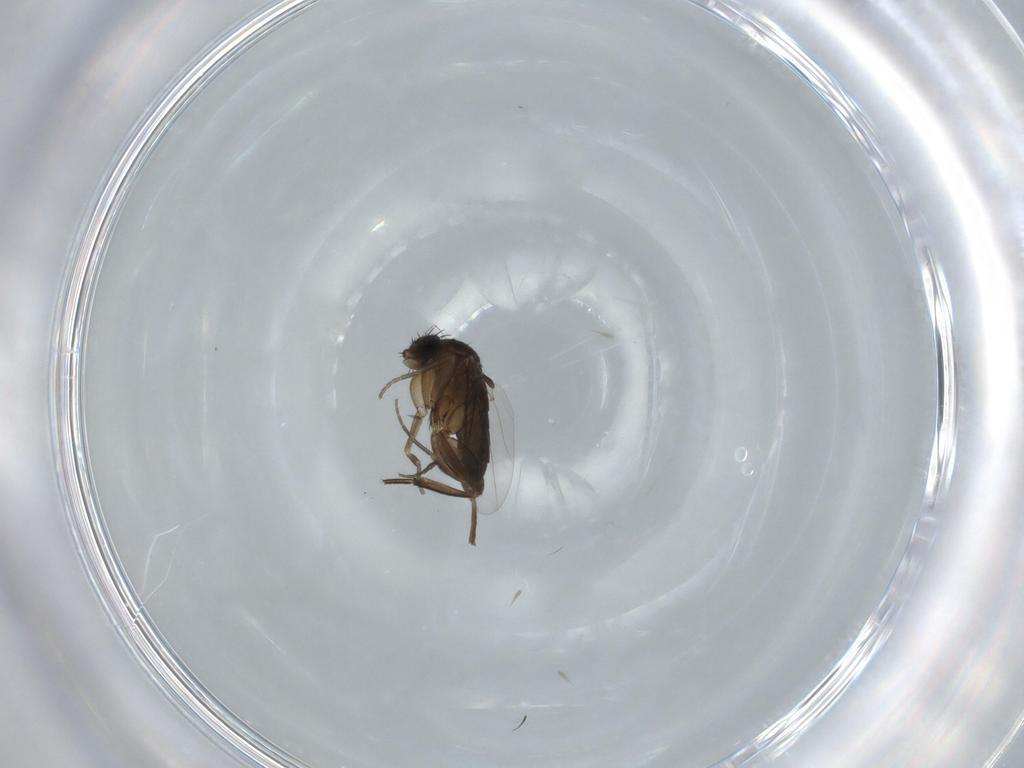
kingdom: Animalia
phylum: Arthropoda
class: Insecta
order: Diptera
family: Phoridae
